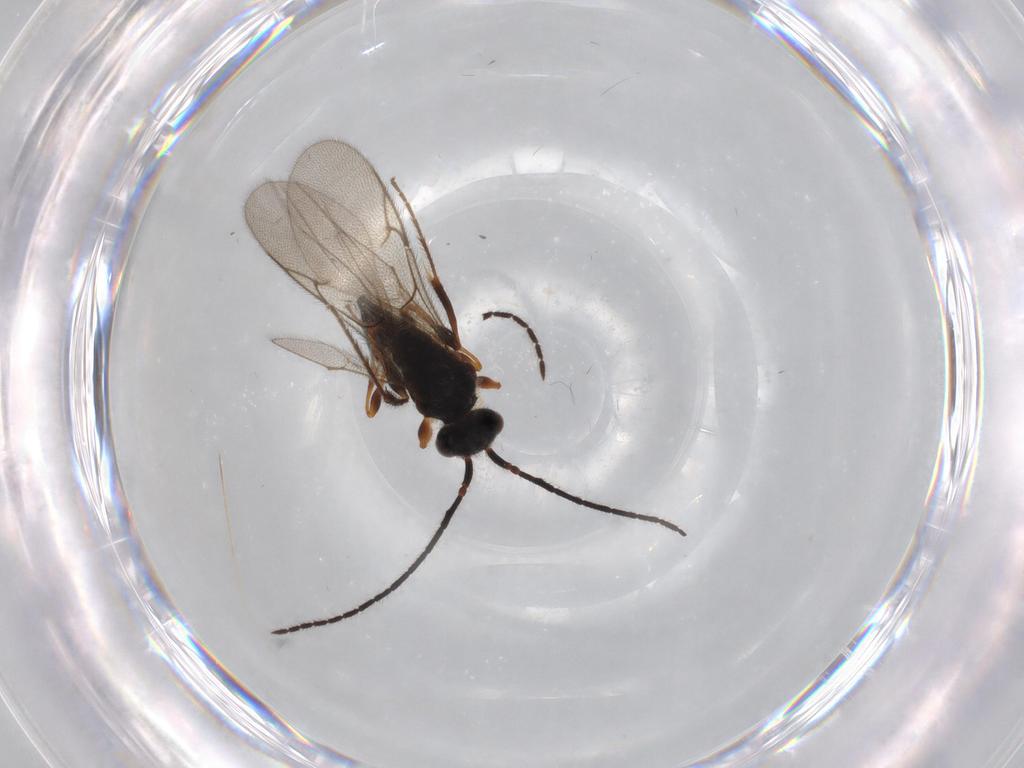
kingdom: Animalia
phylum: Arthropoda
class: Insecta
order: Hymenoptera
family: Diapriidae
